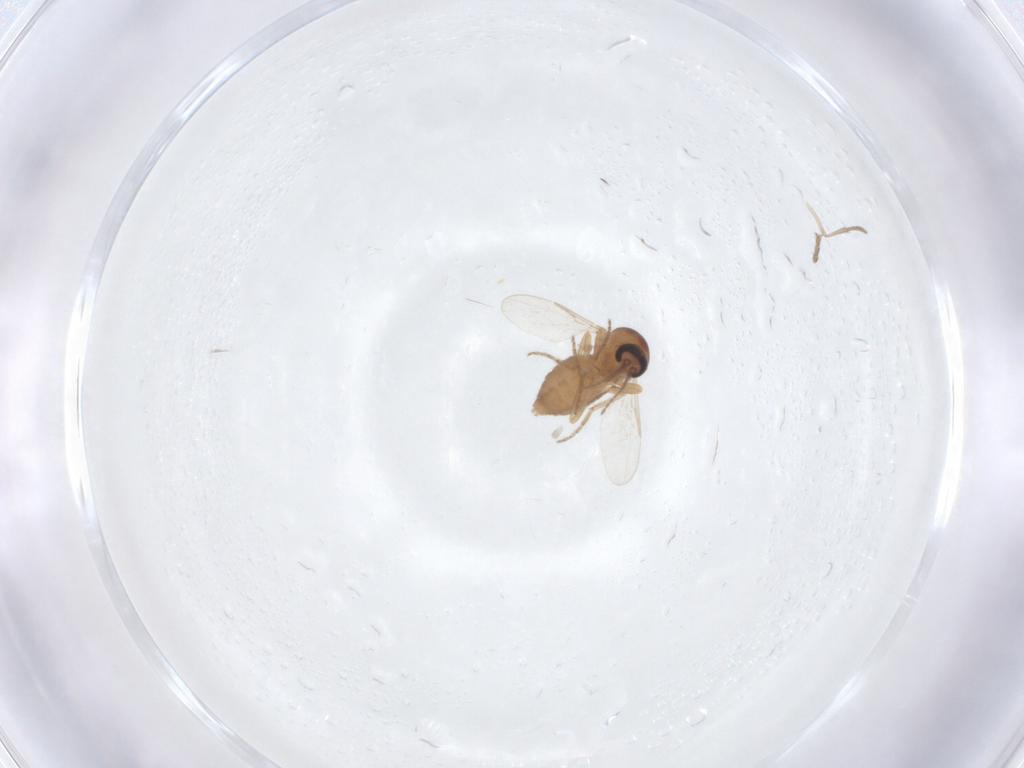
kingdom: Animalia
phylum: Arthropoda
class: Insecta
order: Diptera
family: Ceratopogonidae
